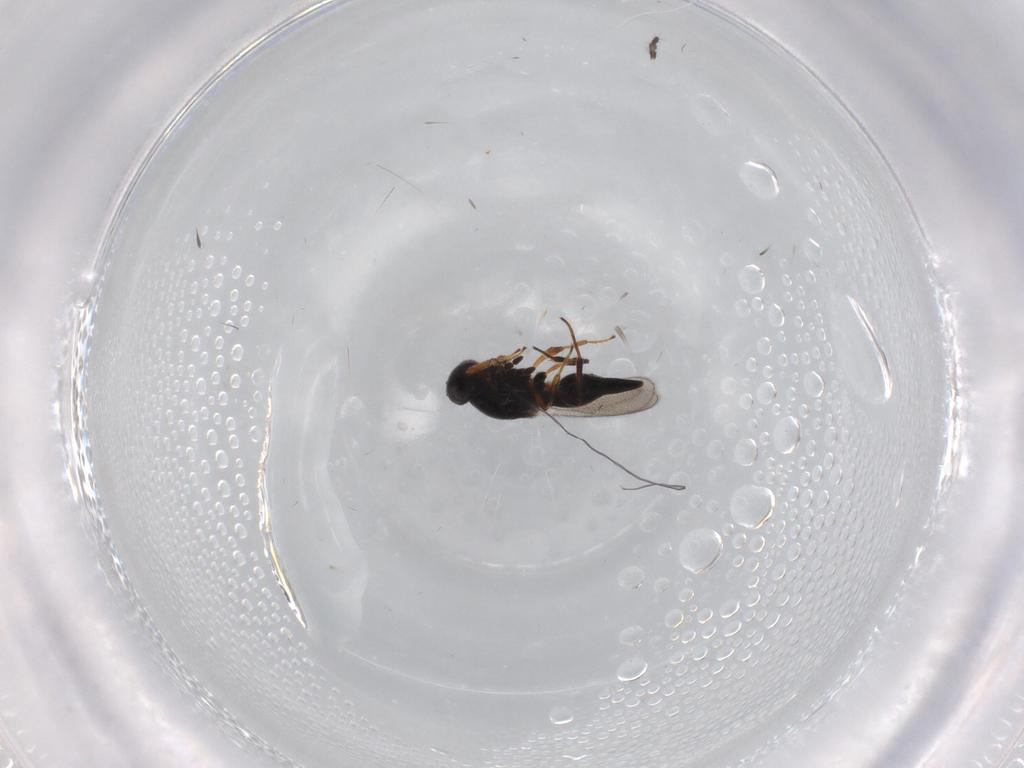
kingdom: Animalia
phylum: Arthropoda
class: Insecta
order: Hymenoptera
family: Platygastridae
